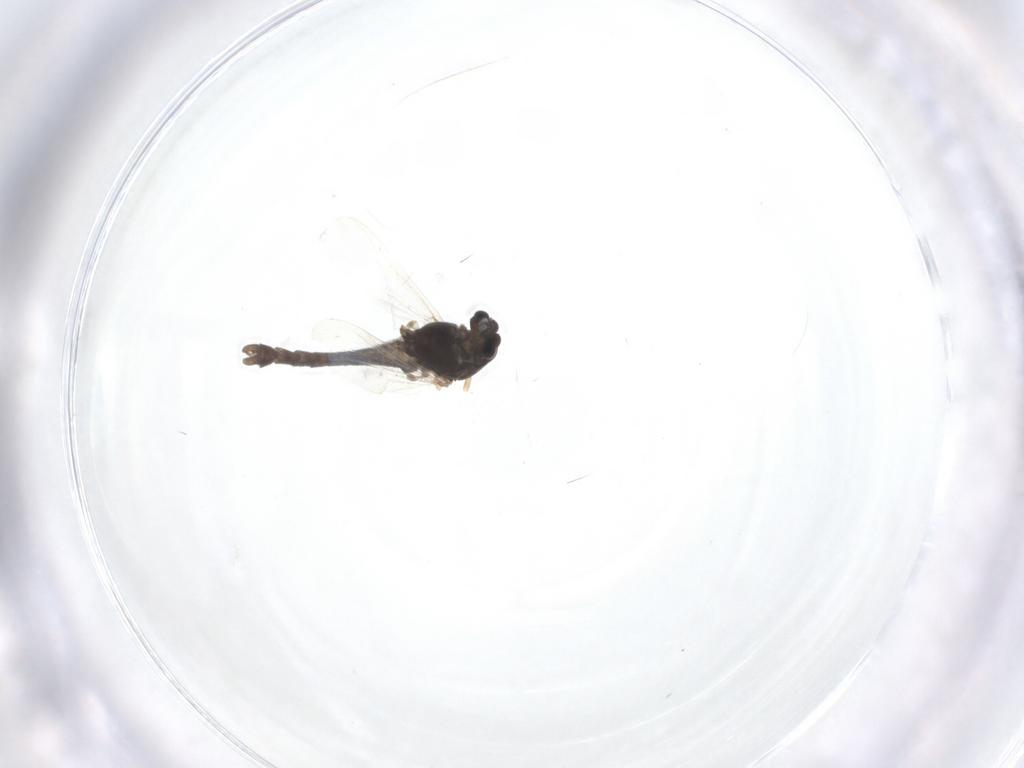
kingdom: Animalia
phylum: Arthropoda
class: Insecta
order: Diptera
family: Chironomidae
